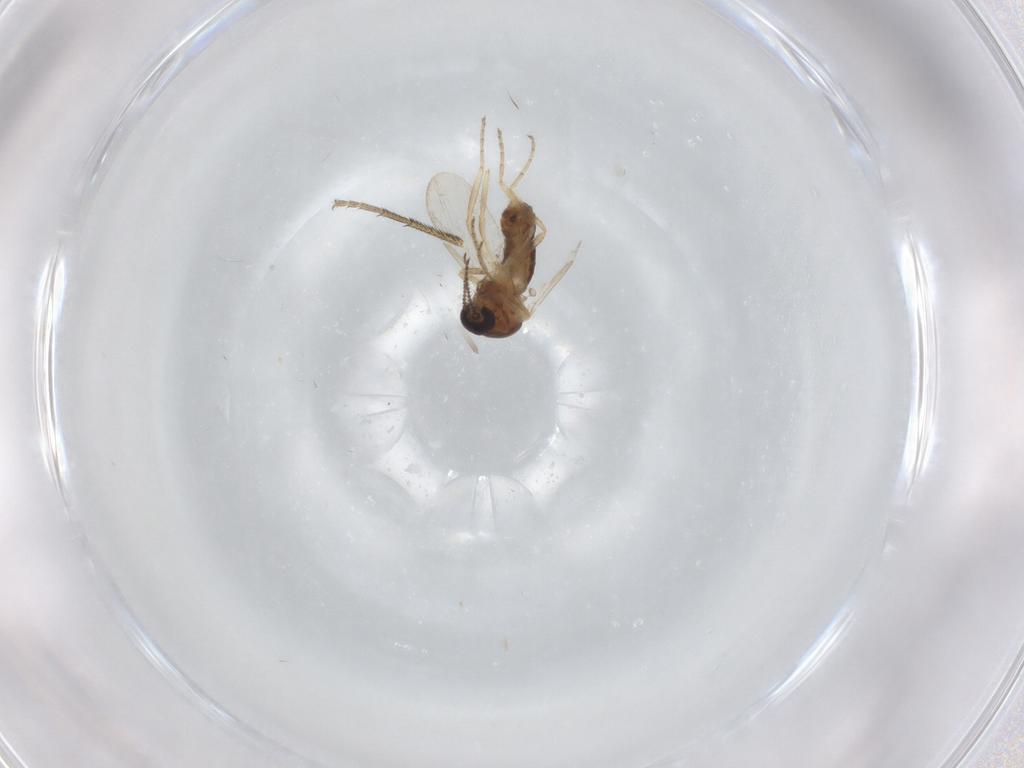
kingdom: Animalia
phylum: Arthropoda
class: Insecta
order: Diptera
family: Ceratopogonidae
